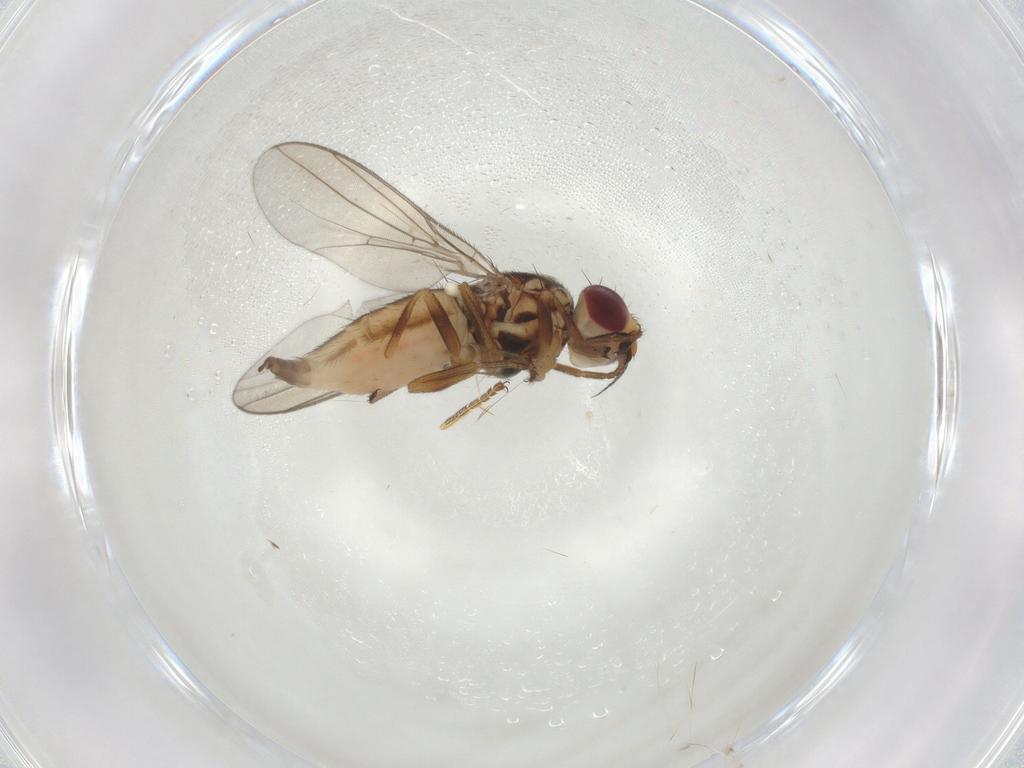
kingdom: Animalia
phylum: Arthropoda
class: Insecta
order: Diptera
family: Chloropidae
